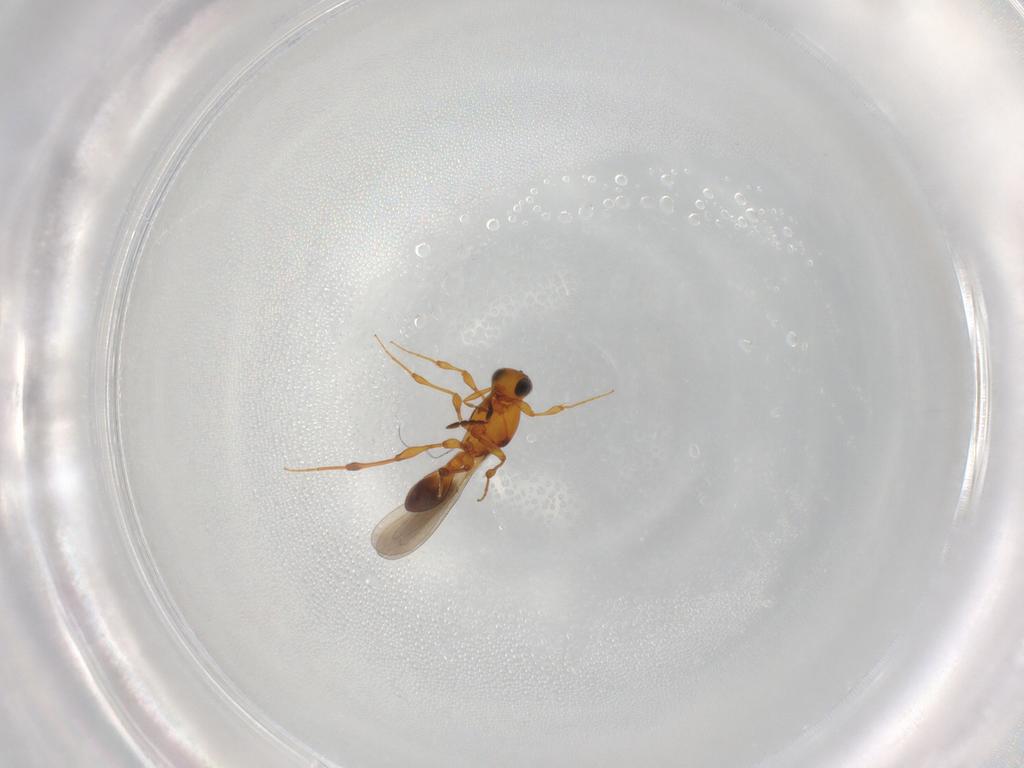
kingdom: Animalia
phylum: Arthropoda
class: Insecta
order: Hymenoptera
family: Platygastridae
